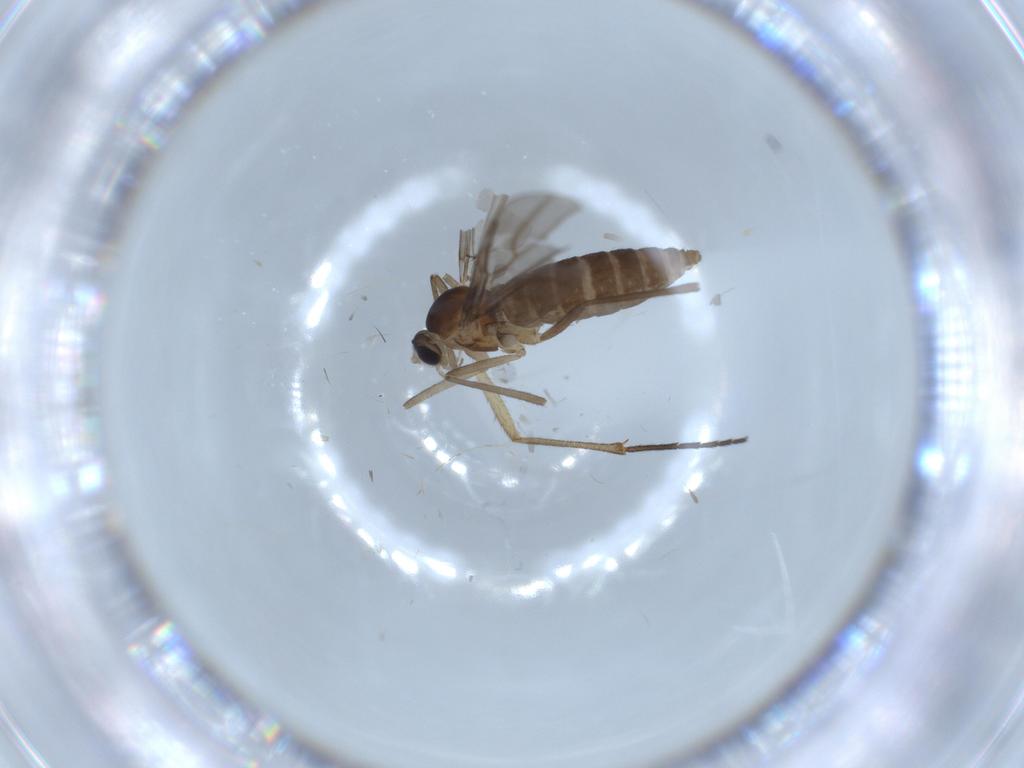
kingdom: Animalia
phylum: Arthropoda
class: Insecta
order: Diptera
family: Cecidomyiidae
